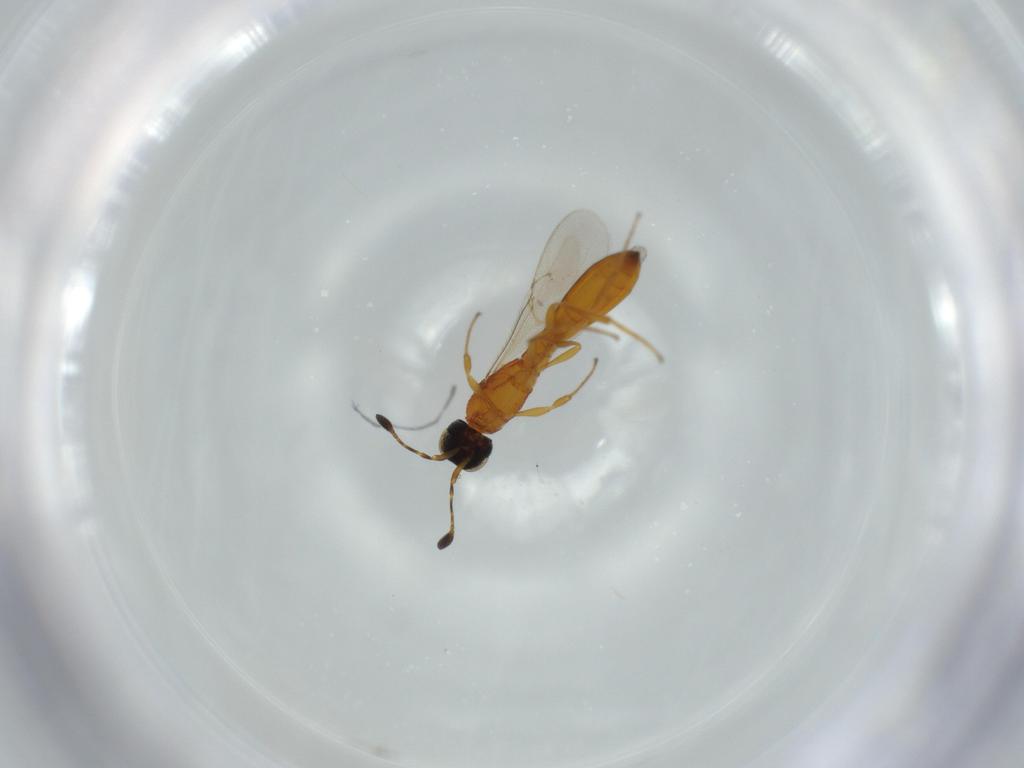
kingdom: Animalia
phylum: Arthropoda
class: Insecta
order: Hymenoptera
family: Scelionidae
